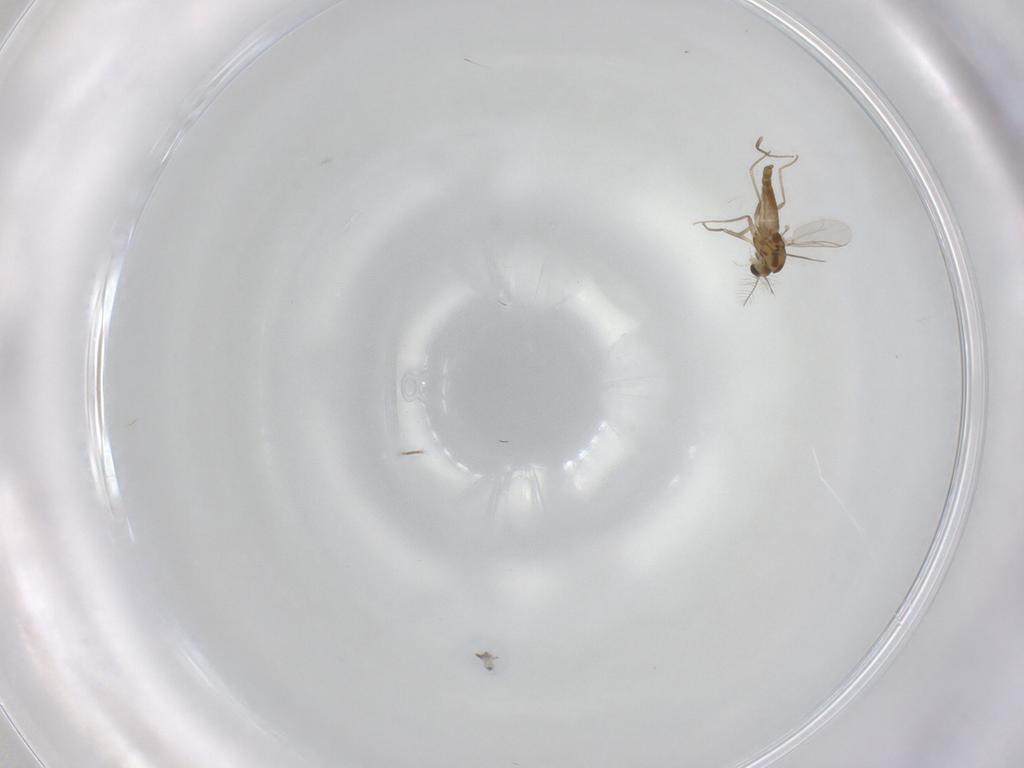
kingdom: Animalia
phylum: Arthropoda
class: Insecta
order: Diptera
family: Chironomidae
